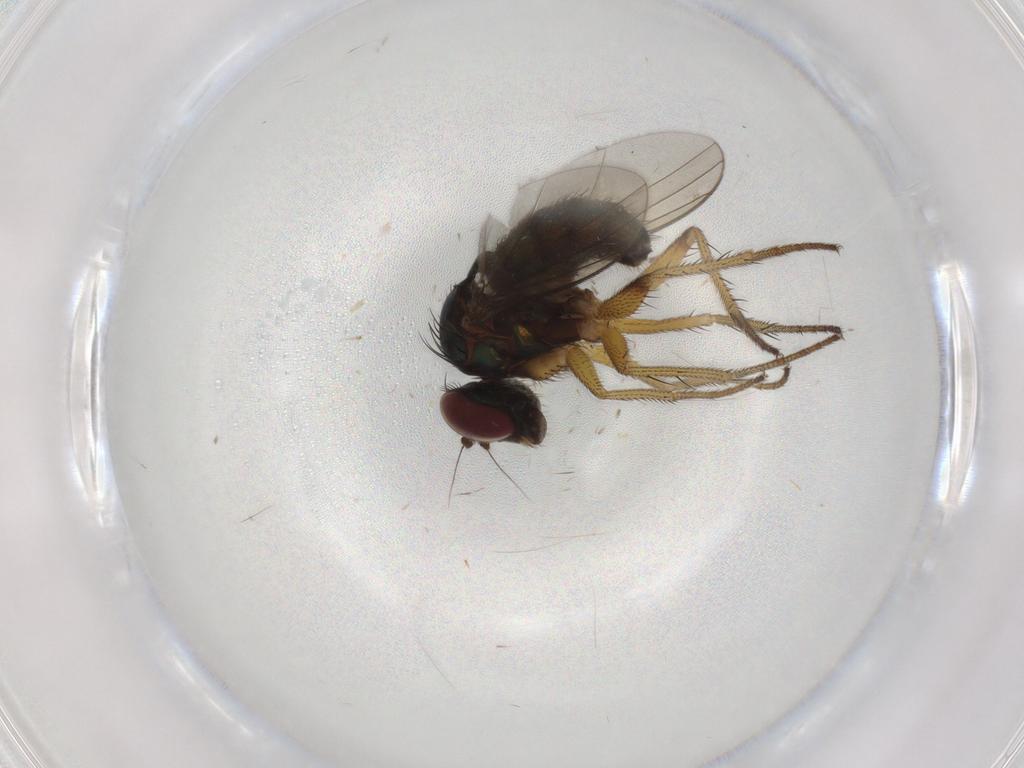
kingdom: Animalia
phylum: Arthropoda
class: Insecta
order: Diptera
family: Dolichopodidae
